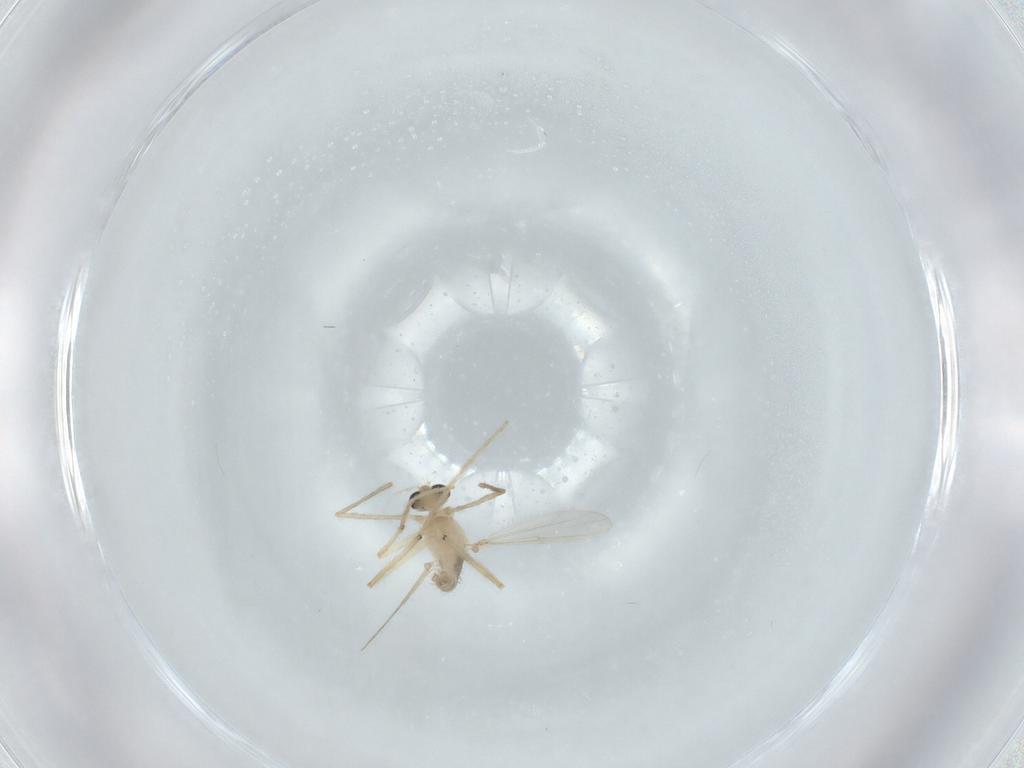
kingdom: Animalia
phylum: Arthropoda
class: Insecta
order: Diptera
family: Chironomidae
